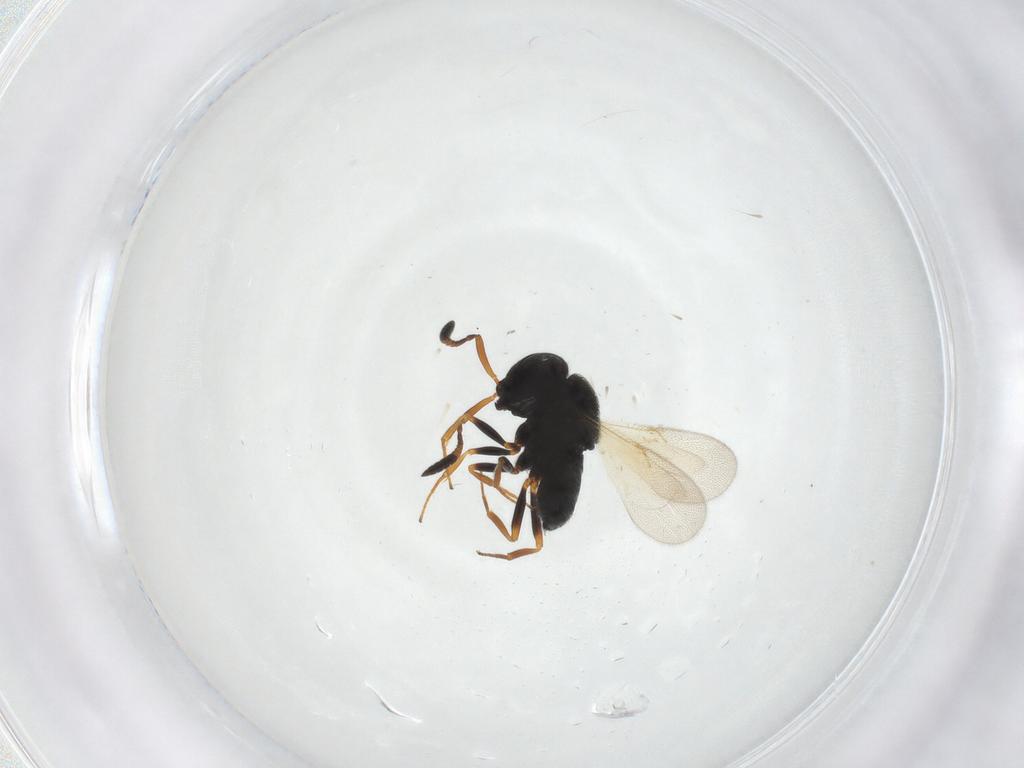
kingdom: Animalia
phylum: Arthropoda
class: Insecta
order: Hymenoptera
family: Scelionidae
